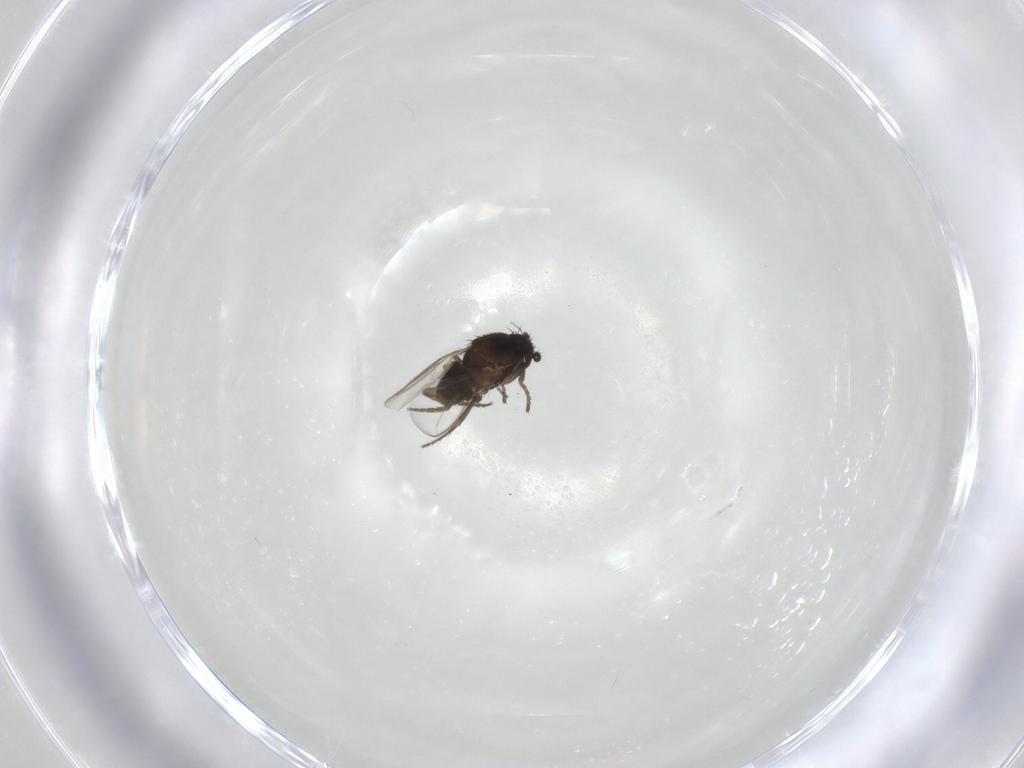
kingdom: Animalia
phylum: Arthropoda
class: Insecta
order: Diptera
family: Sphaeroceridae
